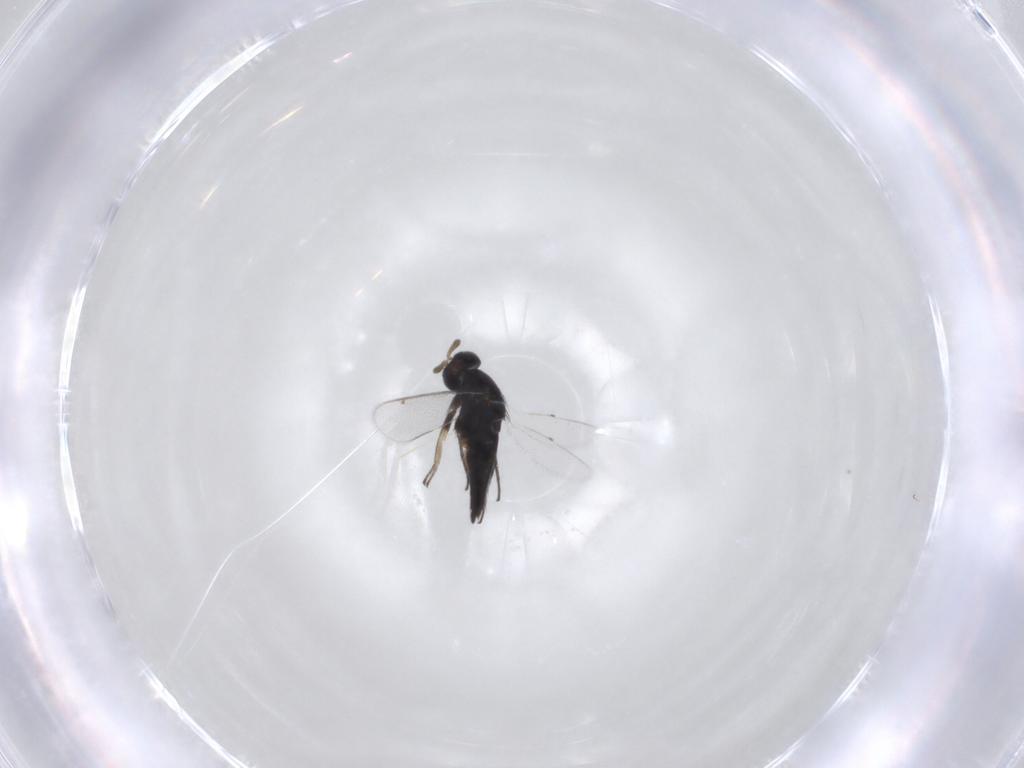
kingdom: Animalia
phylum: Arthropoda
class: Insecta
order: Hymenoptera
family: Eulophidae
